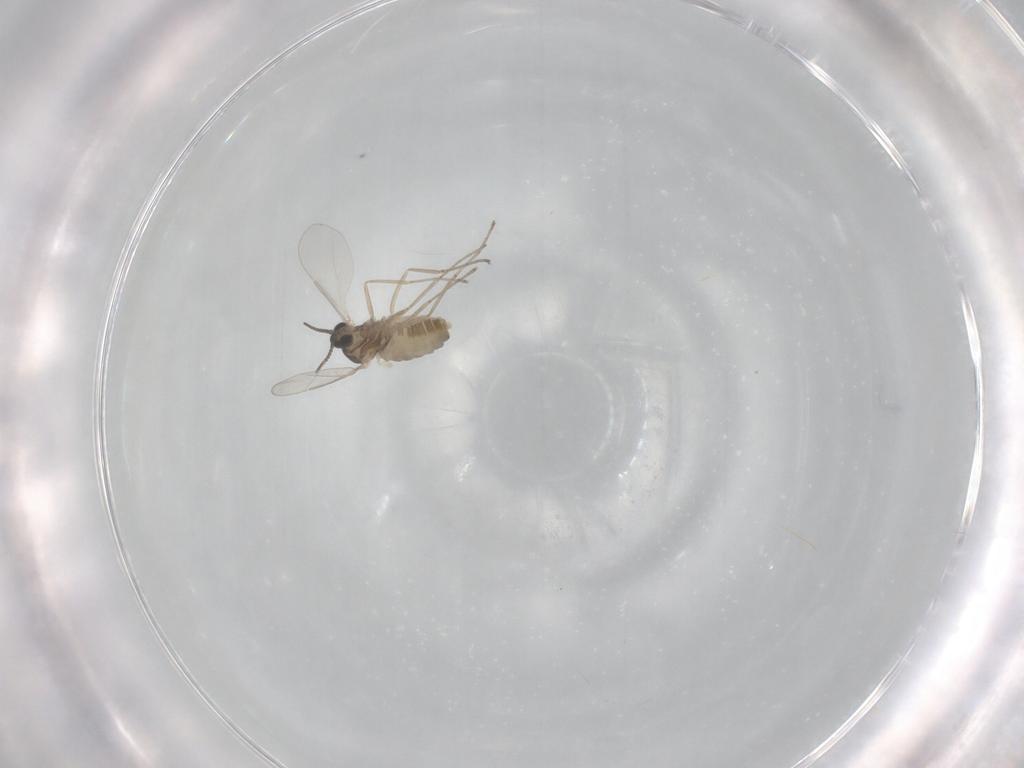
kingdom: Animalia
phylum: Arthropoda
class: Insecta
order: Diptera
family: Cecidomyiidae
